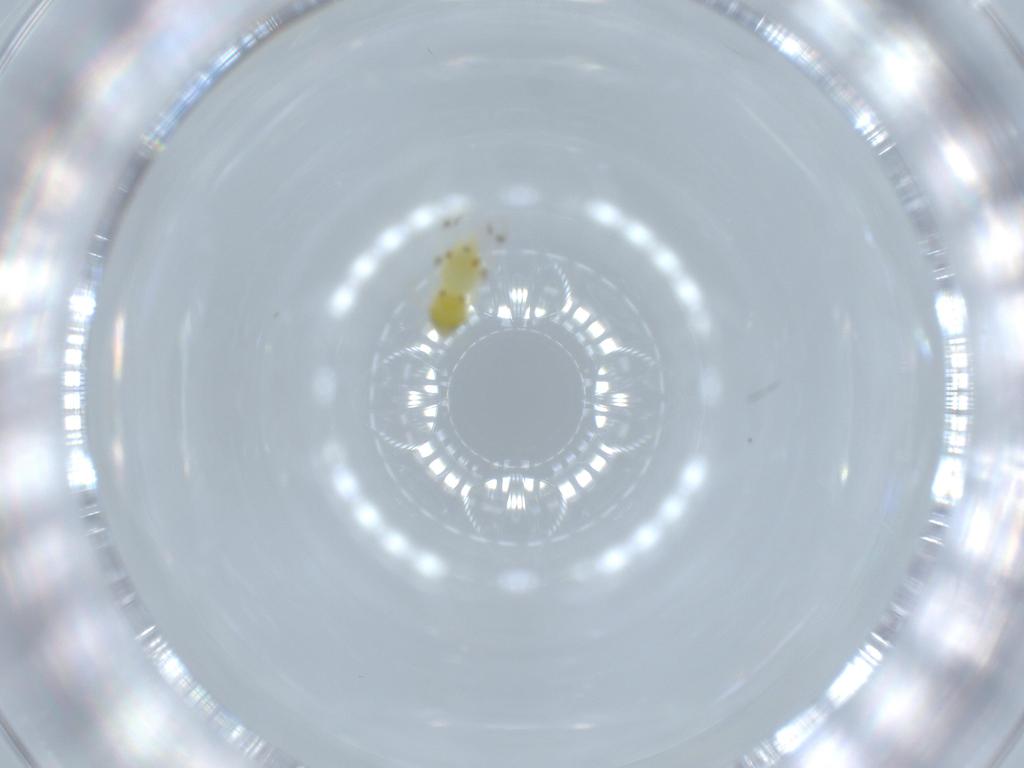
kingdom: Animalia
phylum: Arthropoda
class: Insecta
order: Hemiptera
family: Aleyrodidae
